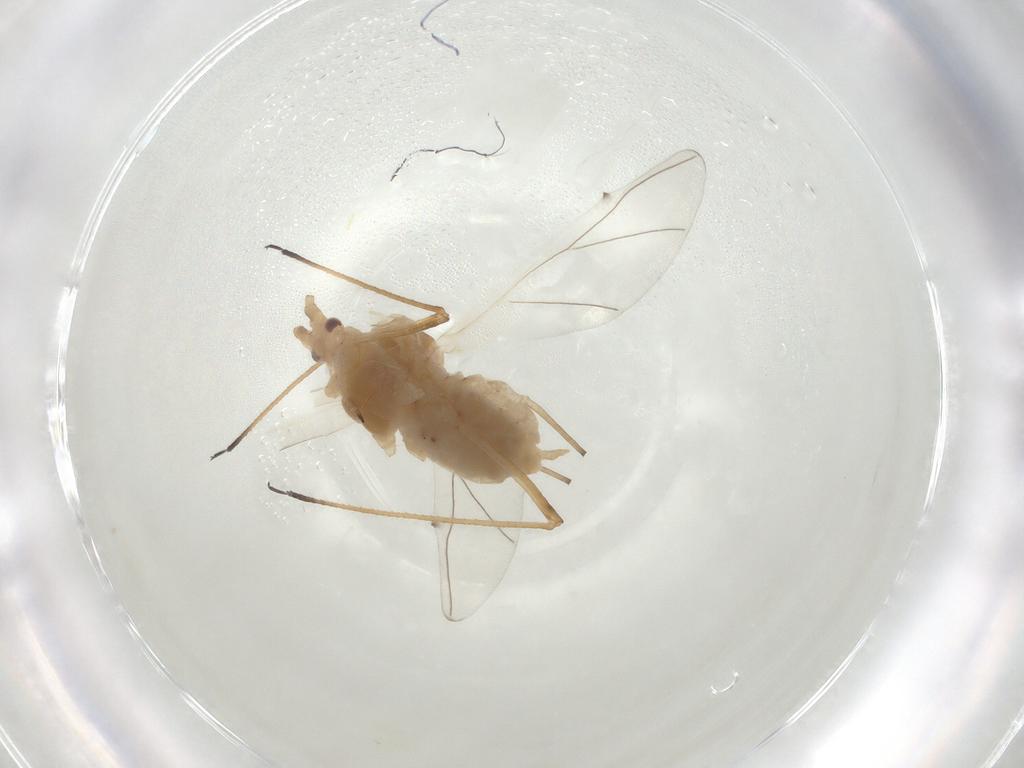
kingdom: Animalia
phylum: Arthropoda
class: Insecta
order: Hemiptera
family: Aphididae
